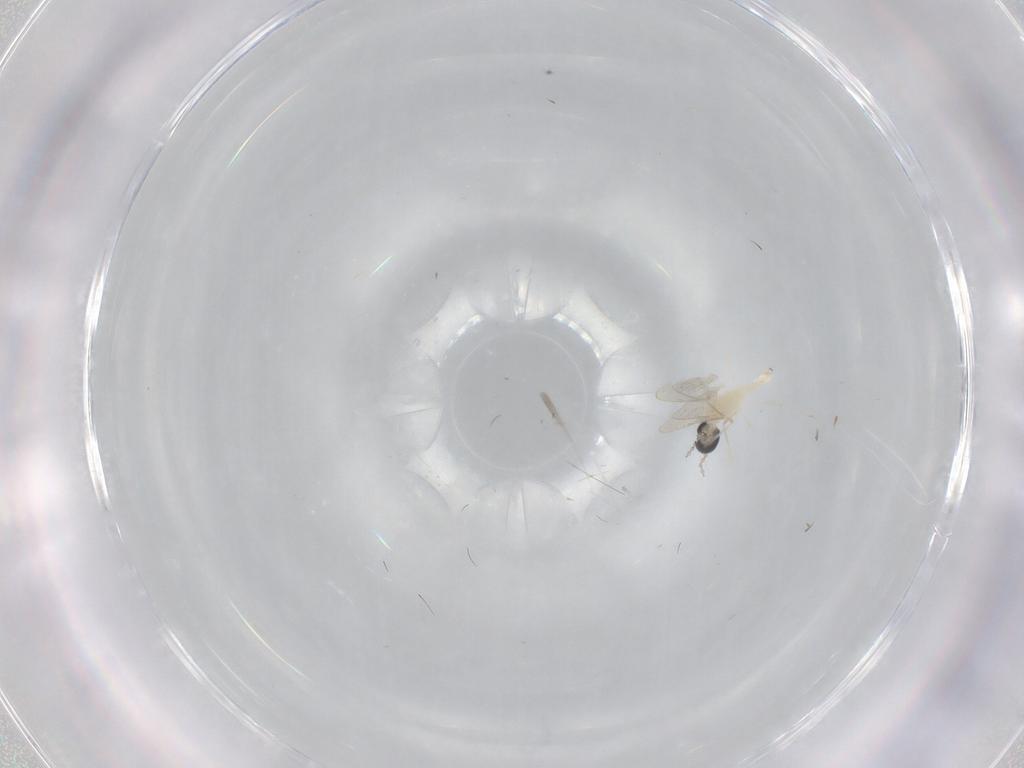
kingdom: Animalia
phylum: Arthropoda
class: Insecta
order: Diptera
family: Cecidomyiidae
